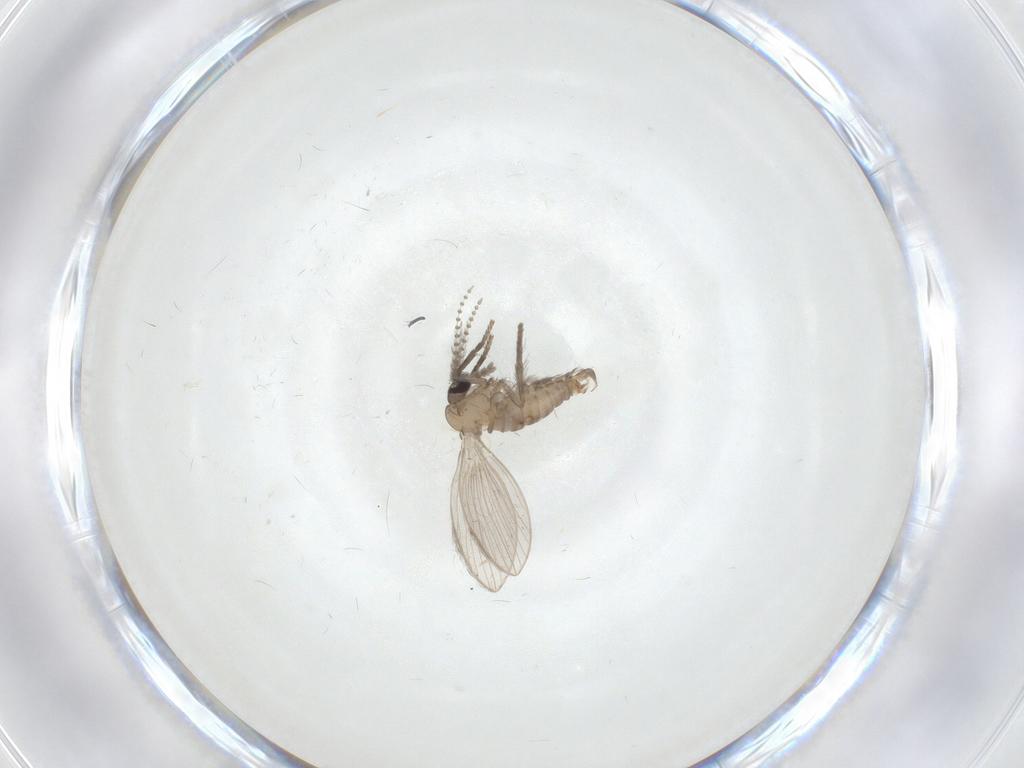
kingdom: Animalia
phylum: Arthropoda
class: Insecta
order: Diptera
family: Psychodidae
